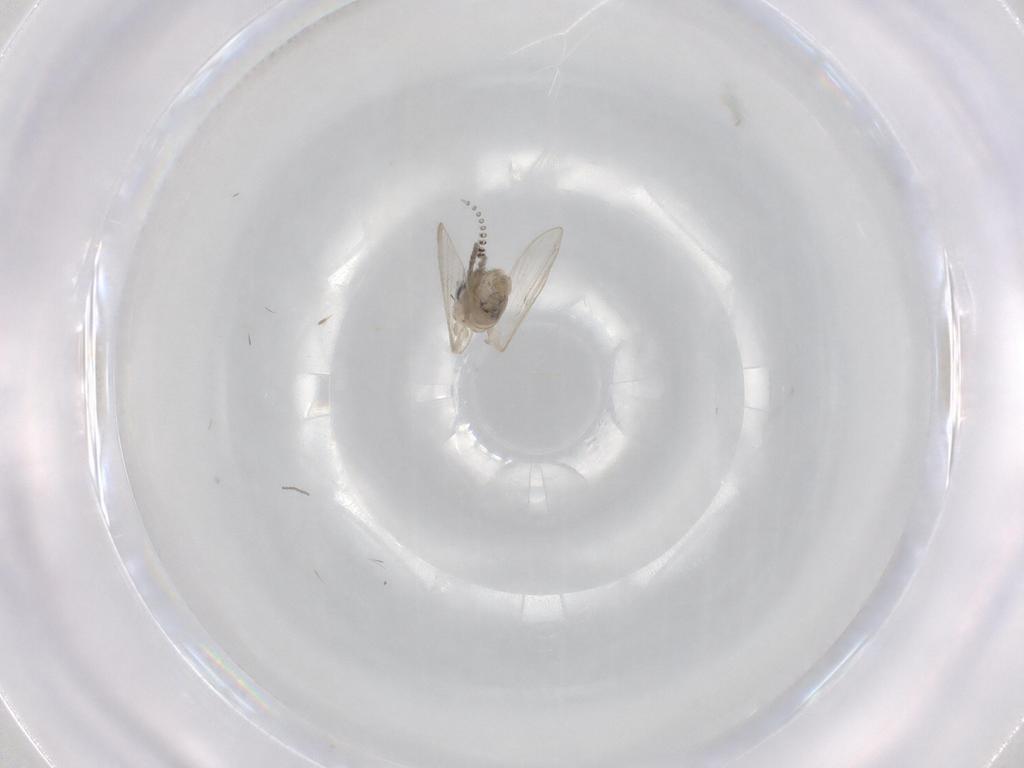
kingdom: Animalia
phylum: Arthropoda
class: Insecta
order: Diptera
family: Psychodidae
